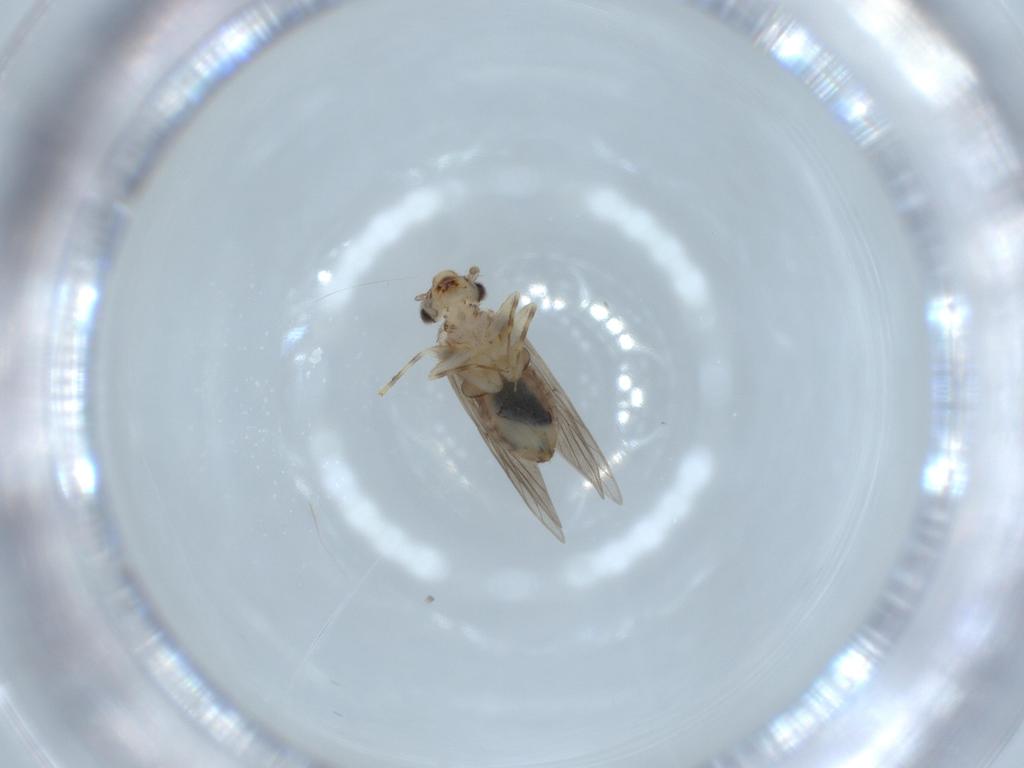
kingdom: Animalia
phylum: Arthropoda
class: Insecta
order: Psocodea
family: Lepidopsocidae
